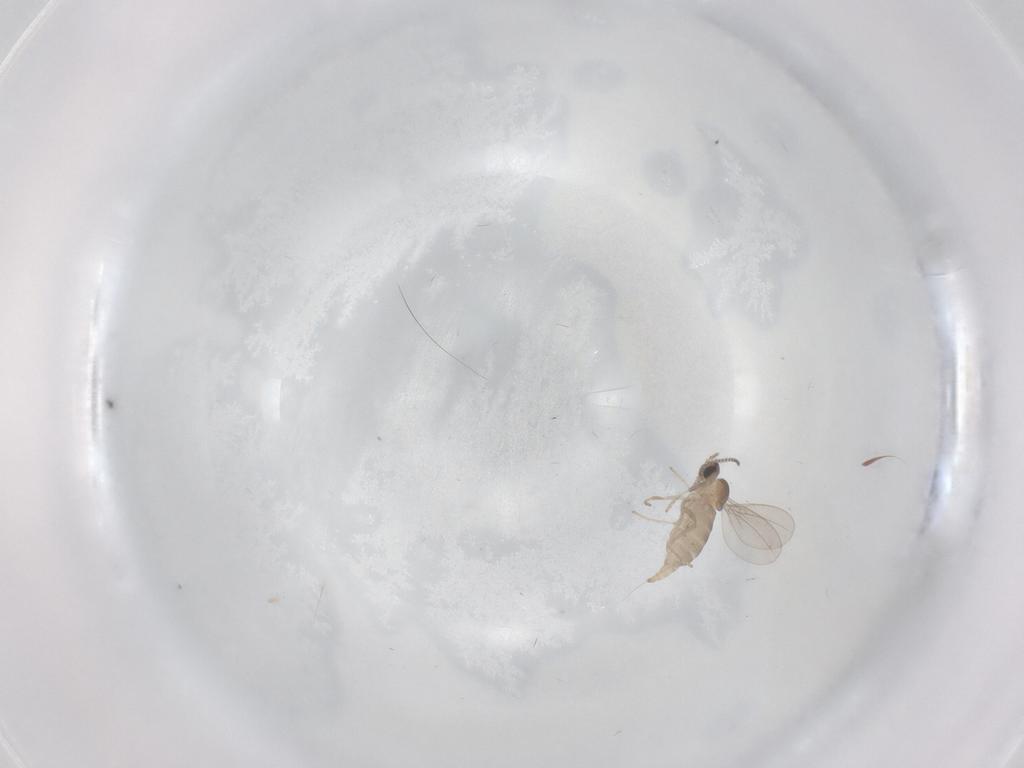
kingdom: Animalia
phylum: Arthropoda
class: Insecta
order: Diptera
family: Cecidomyiidae
